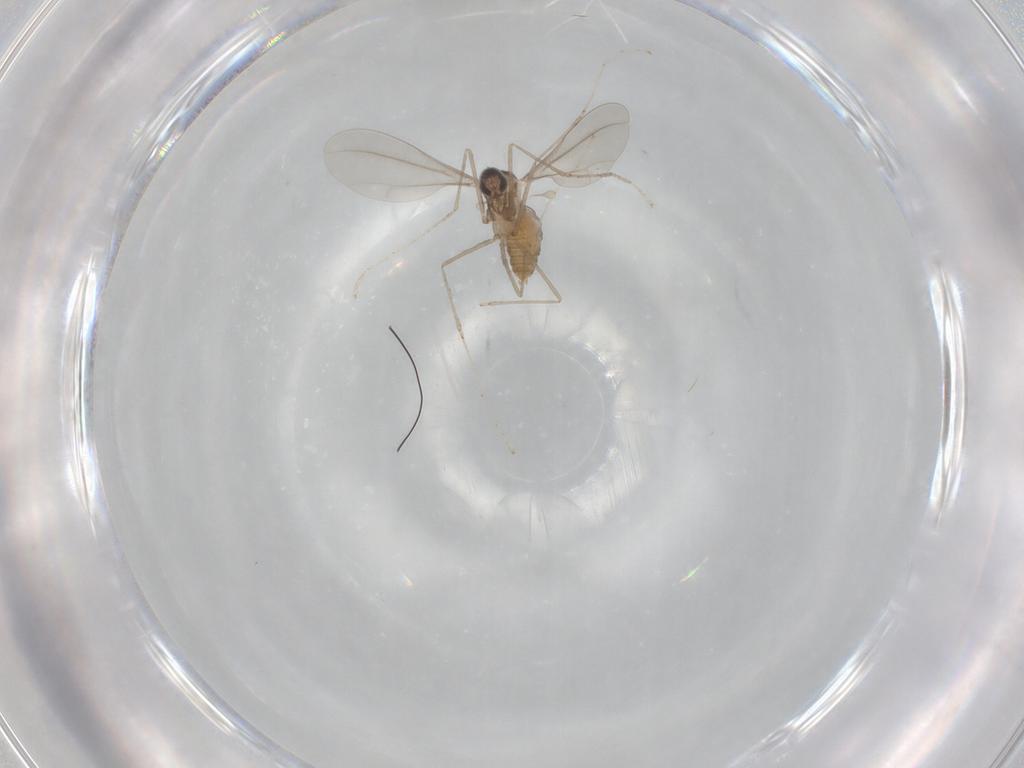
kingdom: Animalia
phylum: Arthropoda
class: Insecta
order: Diptera
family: Cecidomyiidae
